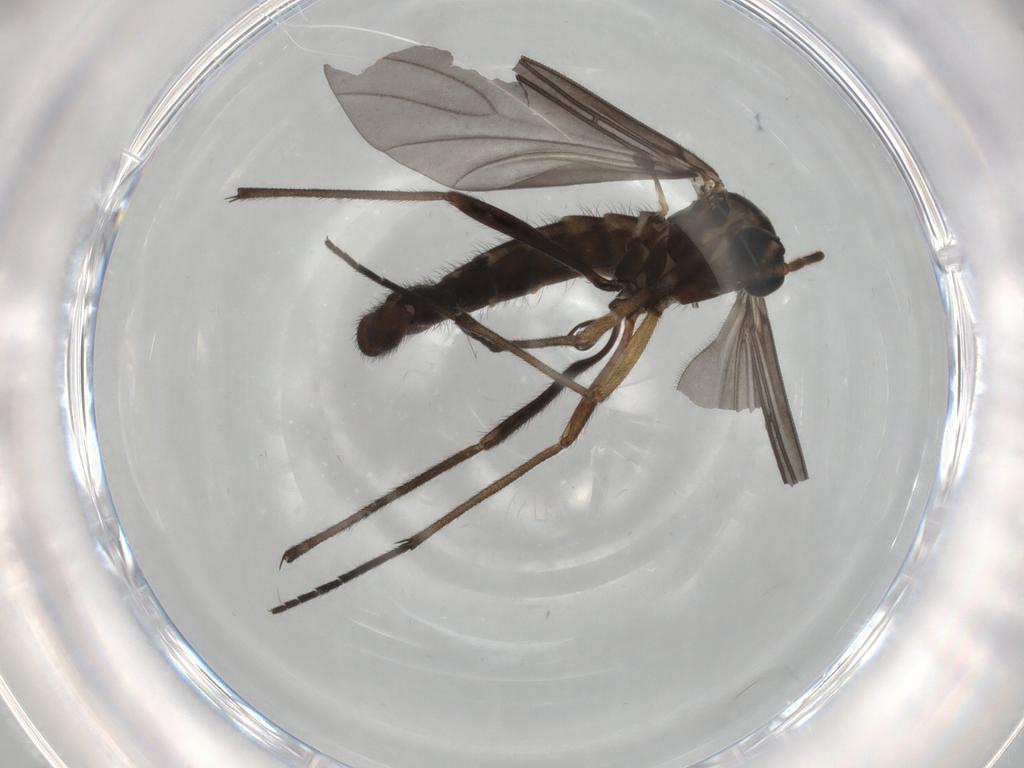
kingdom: Animalia
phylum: Arthropoda
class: Insecta
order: Diptera
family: Sciaridae
